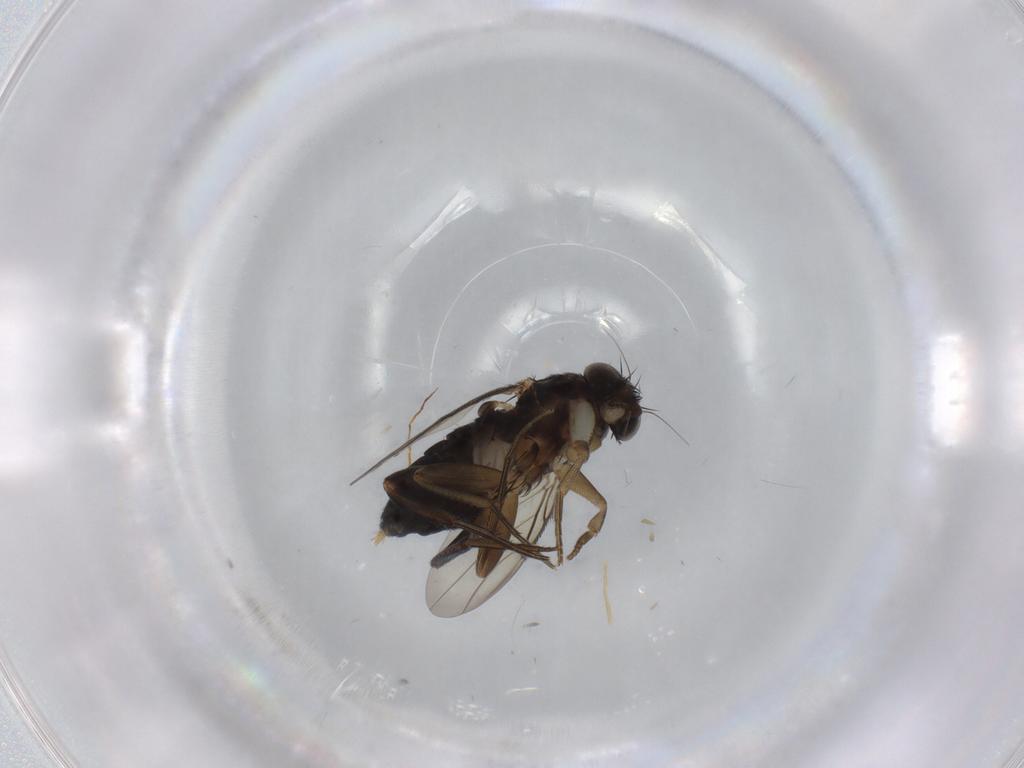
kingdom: Animalia
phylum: Arthropoda
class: Insecta
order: Diptera
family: Phoridae
